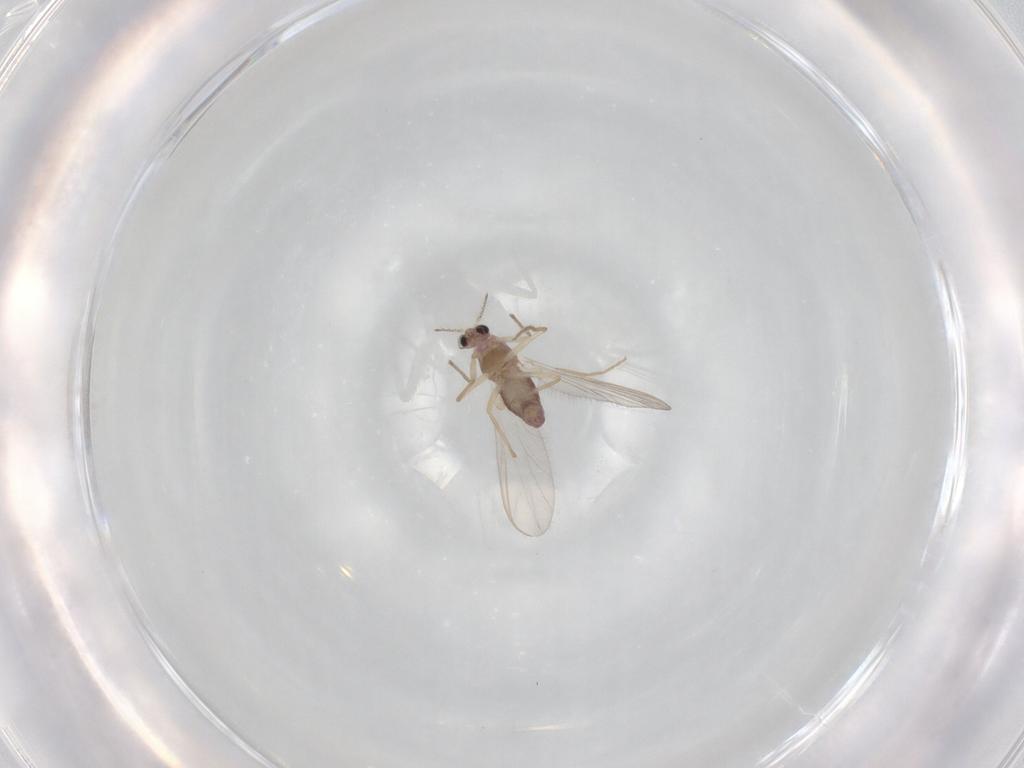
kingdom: Animalia
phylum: Arthropoda
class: Insecta
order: Diptera
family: Chironomidae
